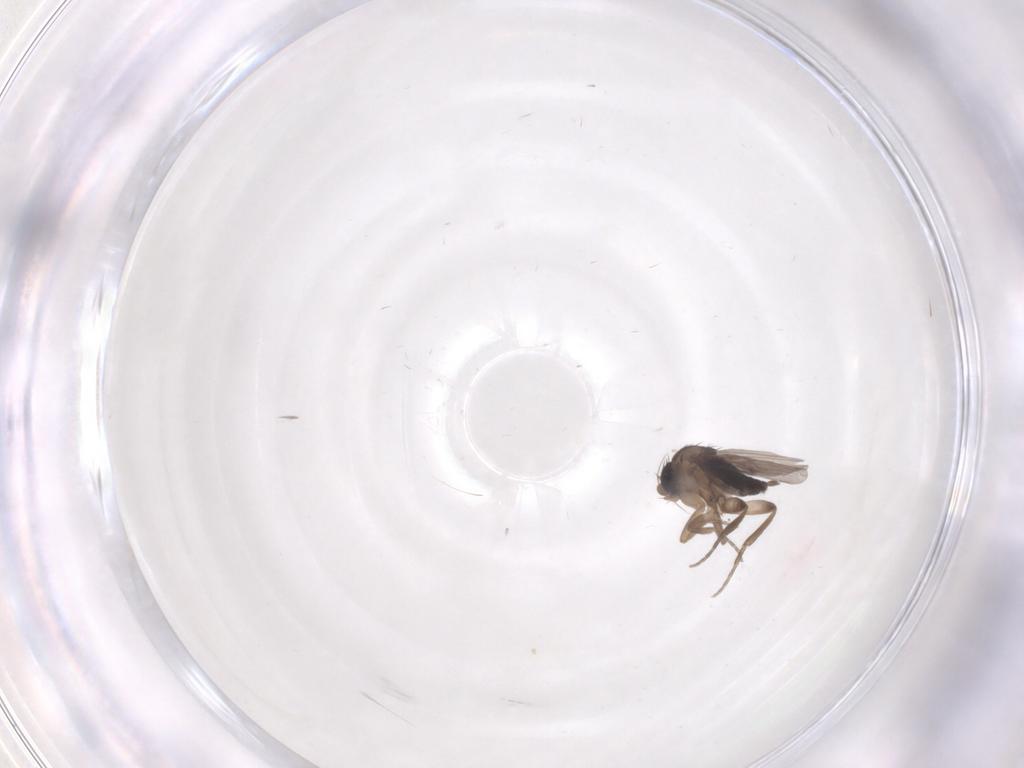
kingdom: Animalia
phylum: Arthropoda
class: Insecta
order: Diptera
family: Phoridae
